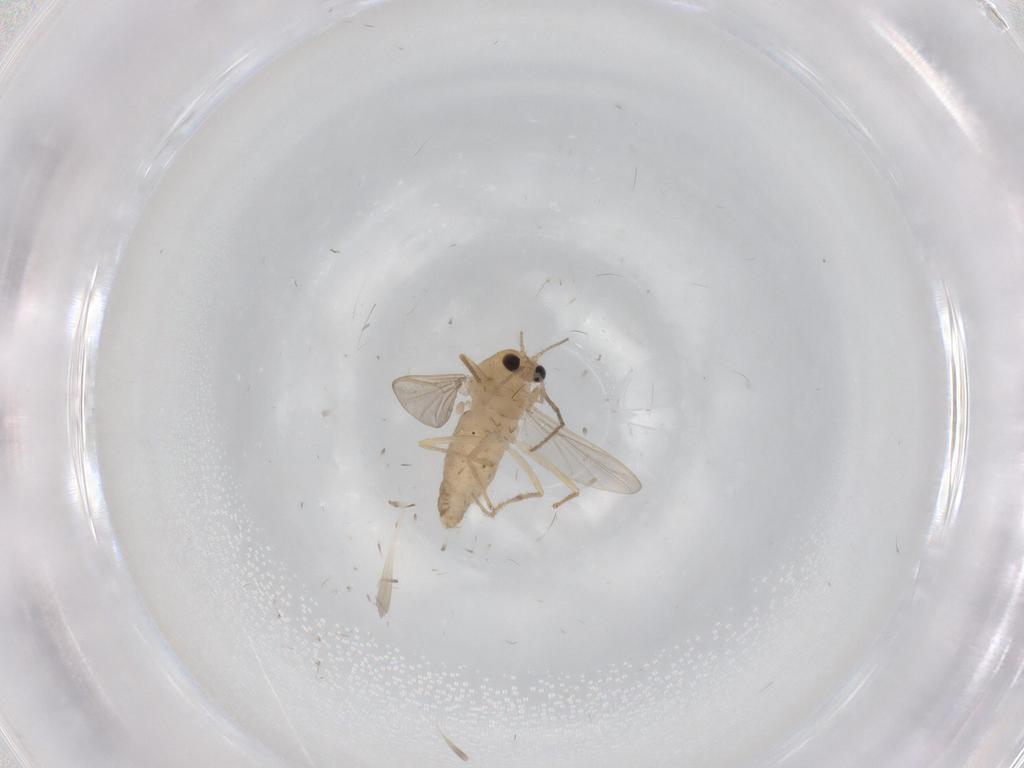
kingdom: Animalia
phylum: Arthropoda
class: Insecta
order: Diptera
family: Chironomidae
